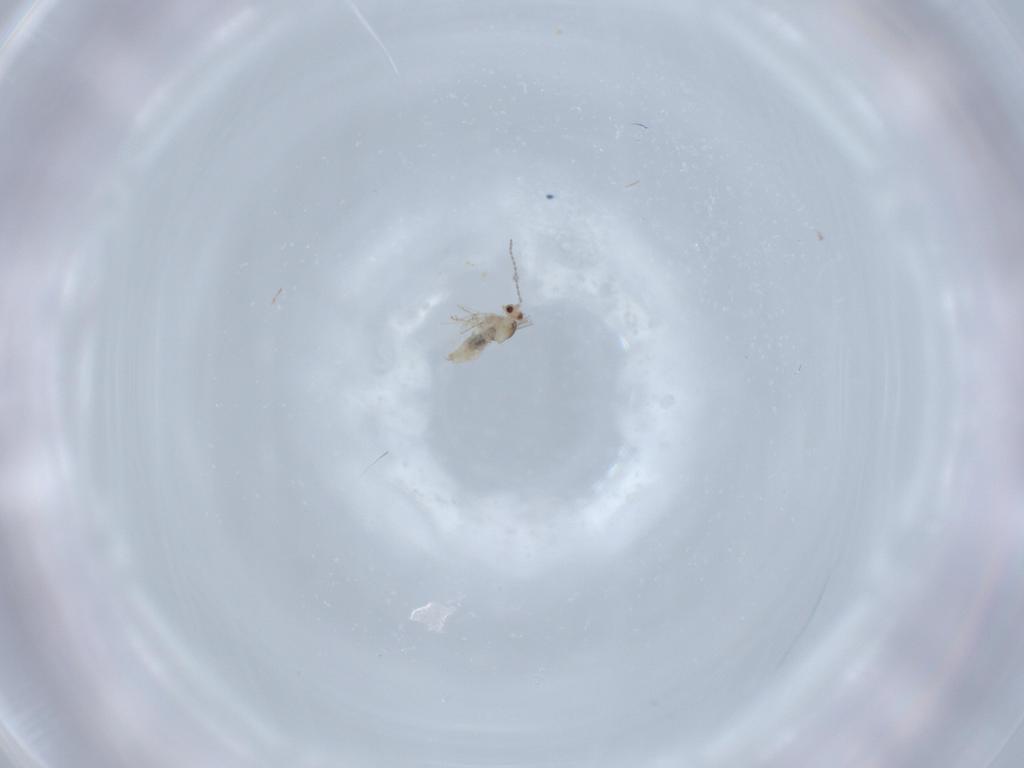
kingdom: Animalia
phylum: Arthropoda
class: Insecta
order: Diptera
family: Cecidomyiidae
